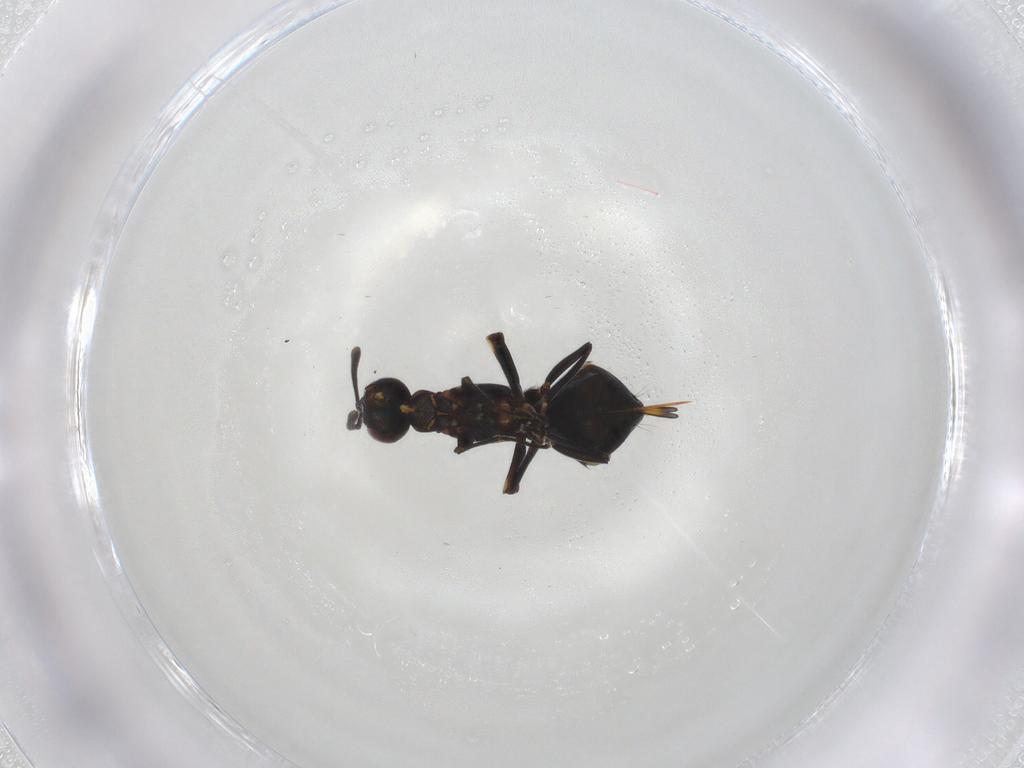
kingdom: Animalia
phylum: Arthropoda
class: Insecta
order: Hymenoptera
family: Eupelmidae
